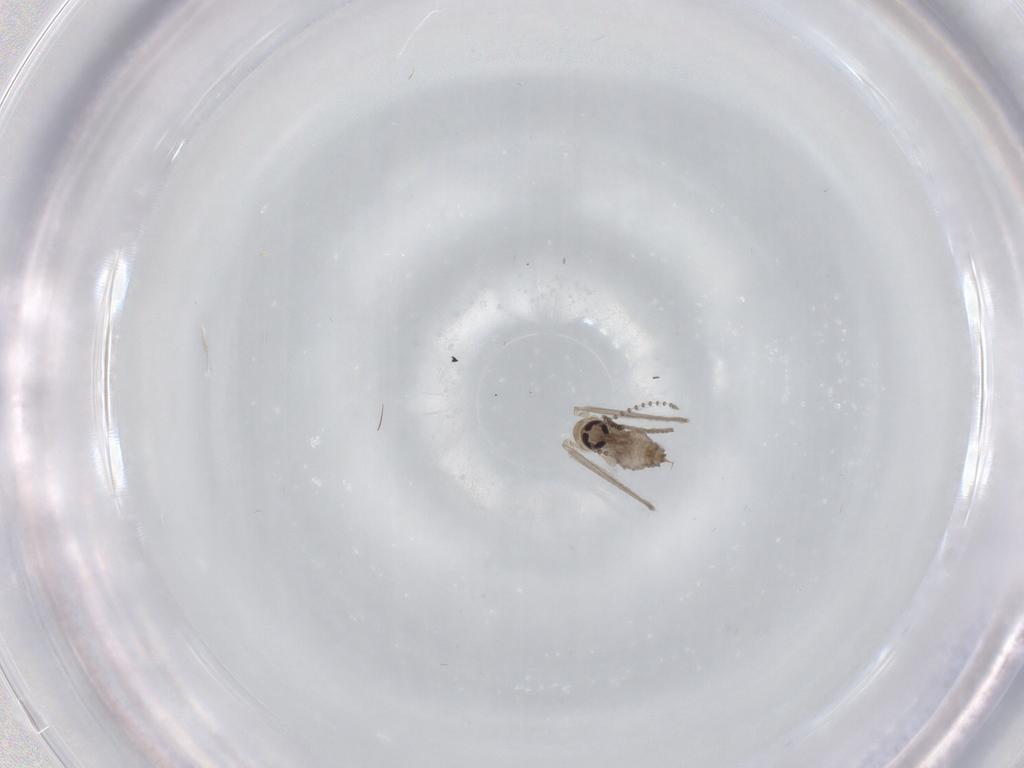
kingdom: Animalia
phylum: Arthropoda
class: Insecta
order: Diptera
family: Psychodidae
